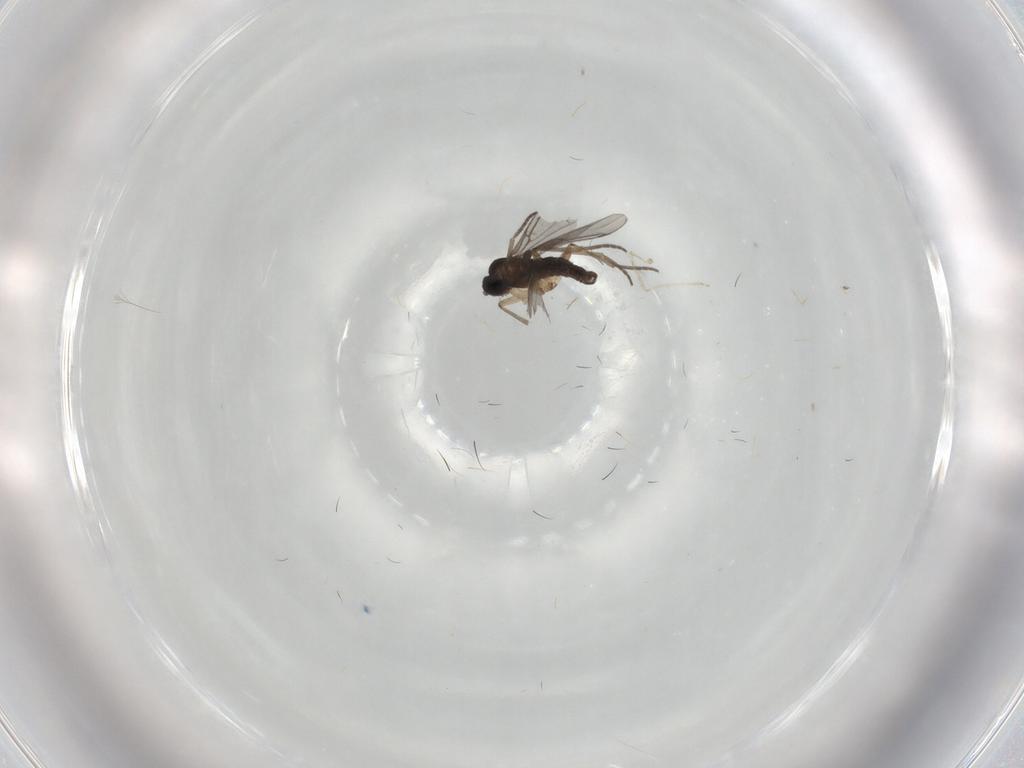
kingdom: Animalia
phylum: Arthropoda
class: Insecta
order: Diptera
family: Sciaridae
